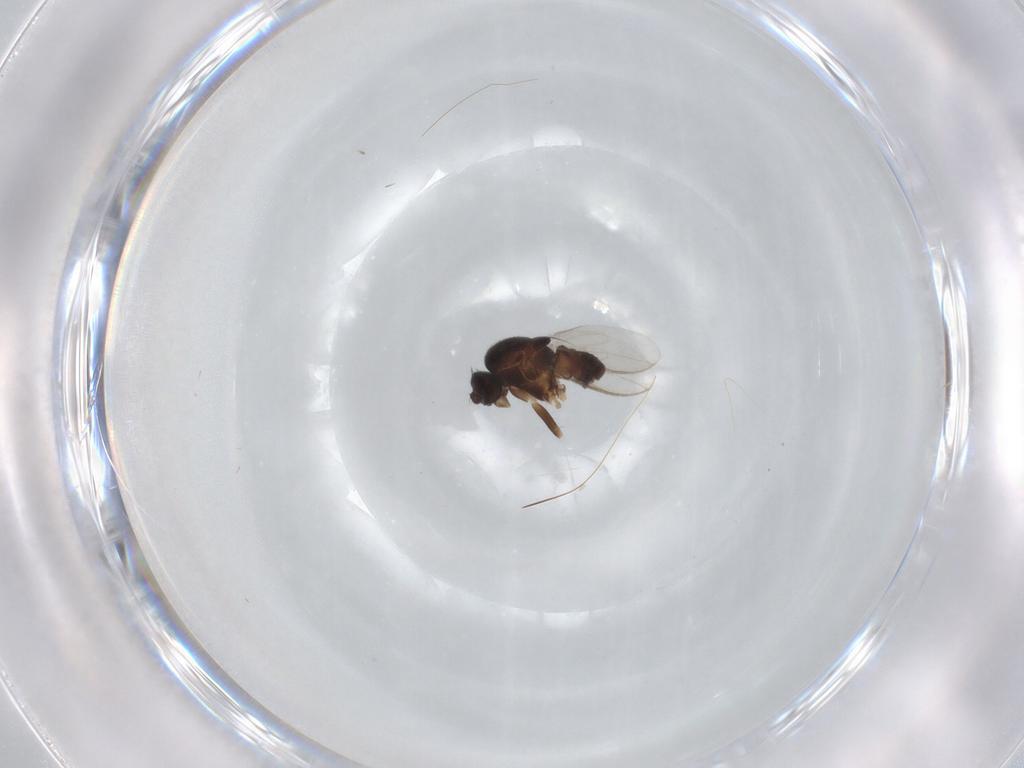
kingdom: Animalia
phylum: Arthropoda
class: Insecta
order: Diptera
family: Sphaeroceridae
